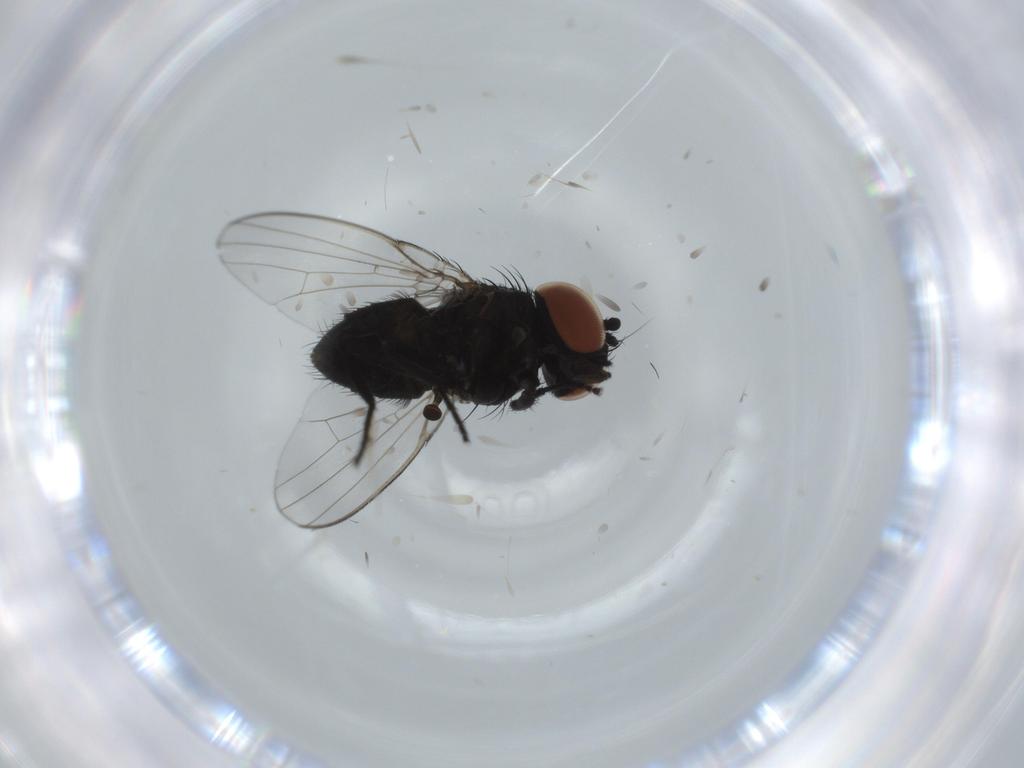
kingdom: Animalia
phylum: Arthropoda
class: Insecta
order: Diptera
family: Milichiidae
